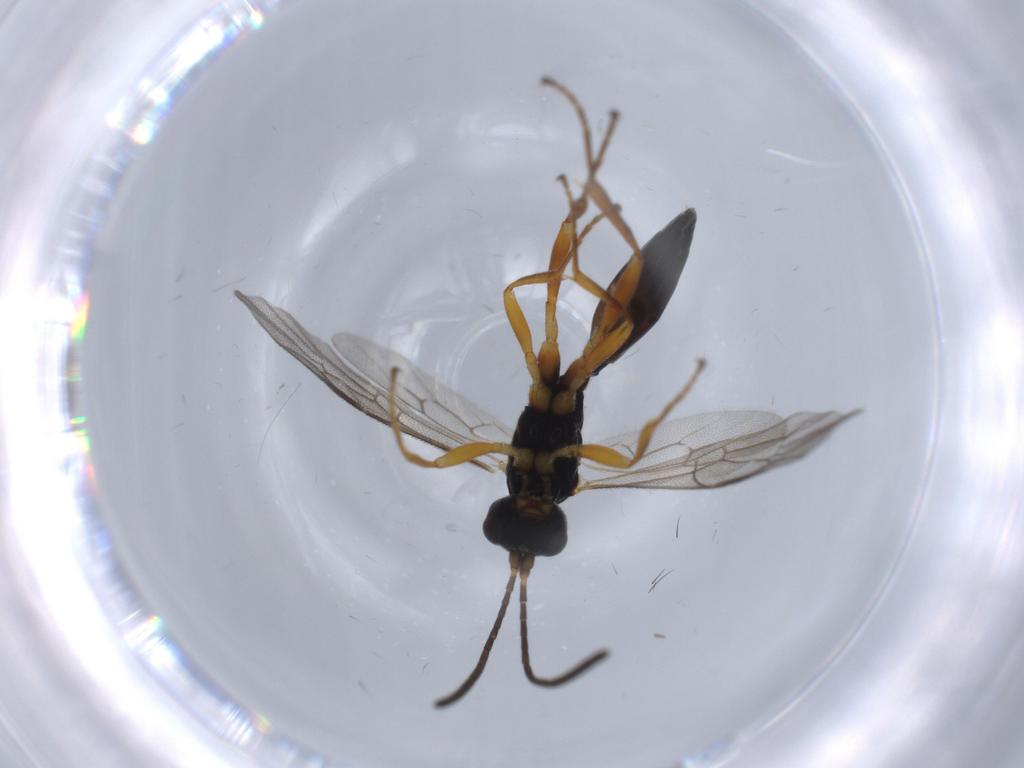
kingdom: Animalia
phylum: Arthropoda
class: Insecta
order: Hymenoptera
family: Ichneumonidae
